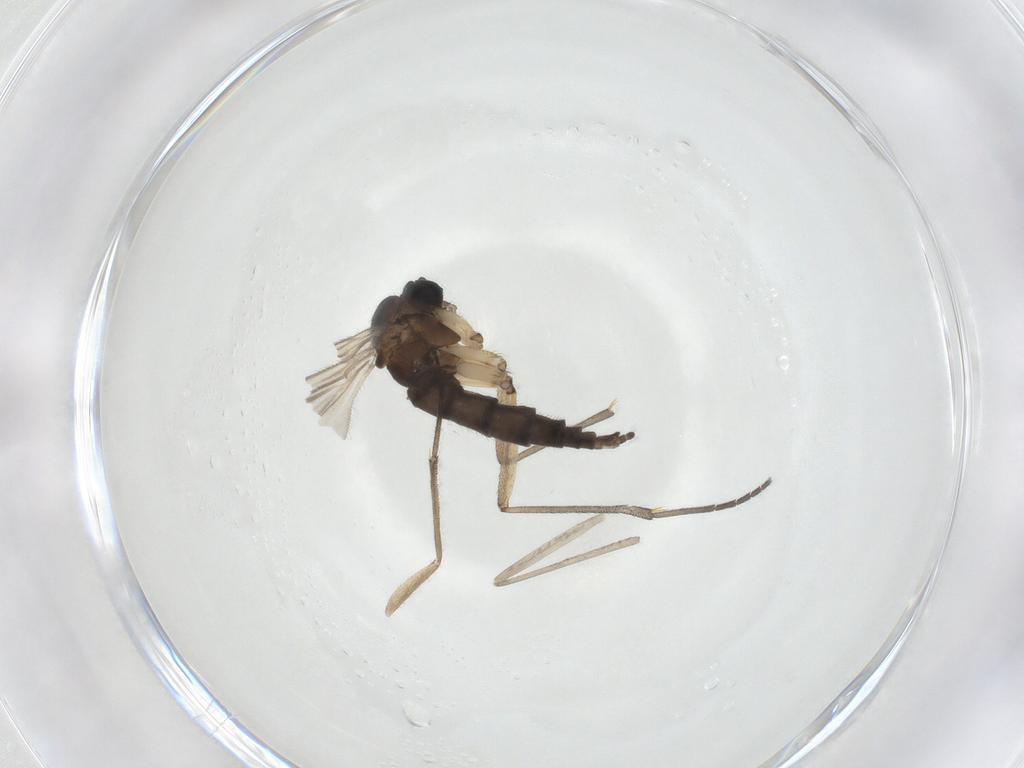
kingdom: Animalia
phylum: Arthropoda
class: Insecta
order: Diptera
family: Sciaridae
